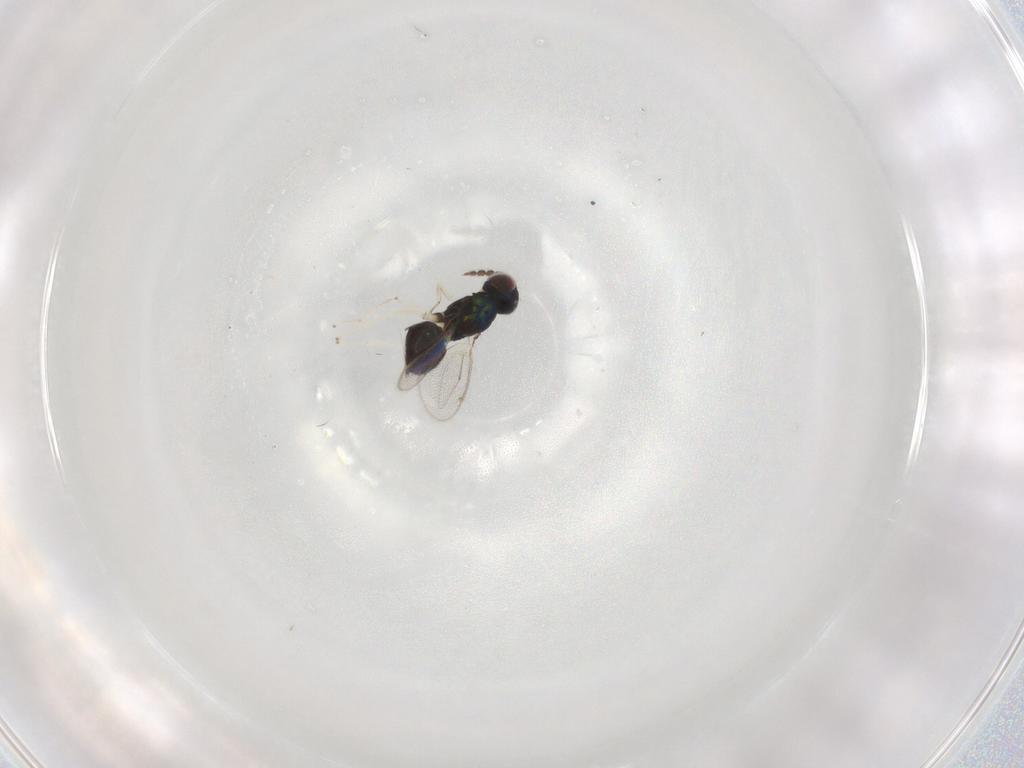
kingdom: Animalia
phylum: Arthropoda
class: Insecta
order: Hymenoptera
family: Eulophidae
